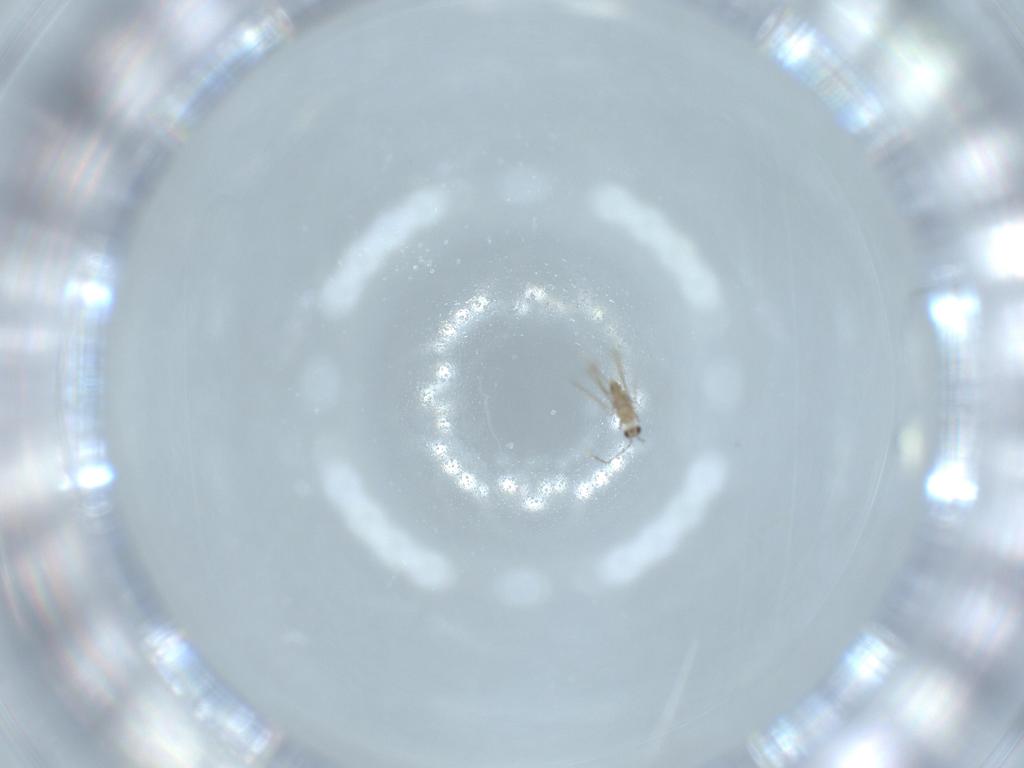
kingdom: Animalia
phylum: Arthropoda
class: Insecta
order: Hymenoptera
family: Mymaridae
